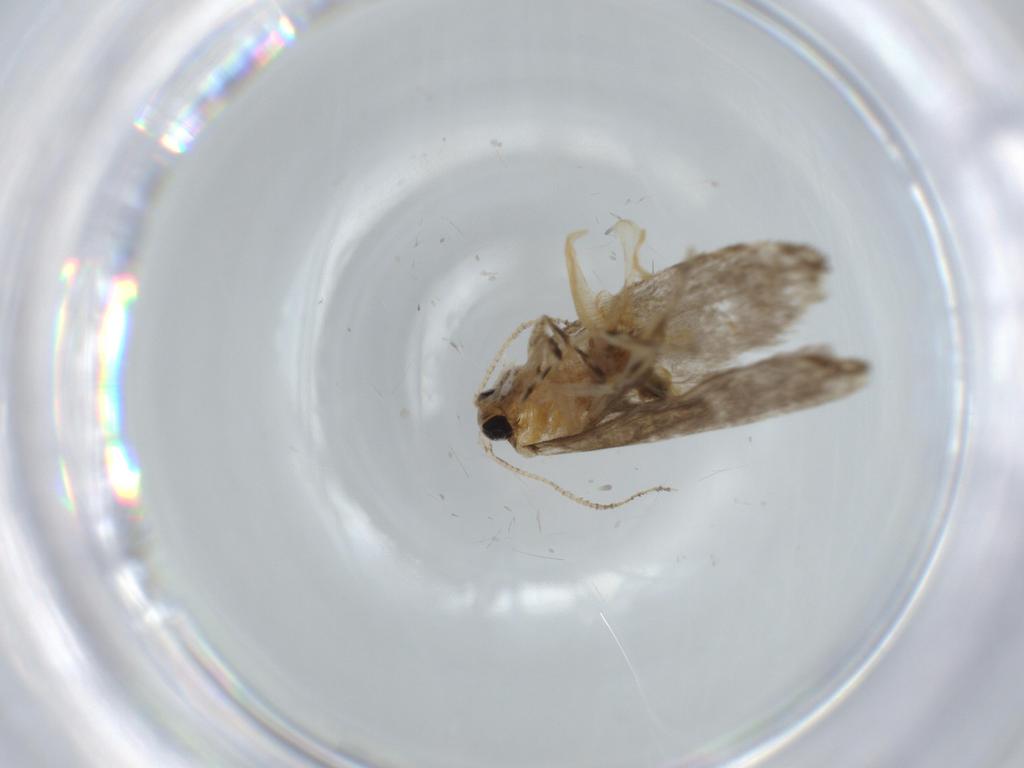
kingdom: Animalia
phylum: Arthropoda
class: Insecta
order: Lepidoptera
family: Tineidae
